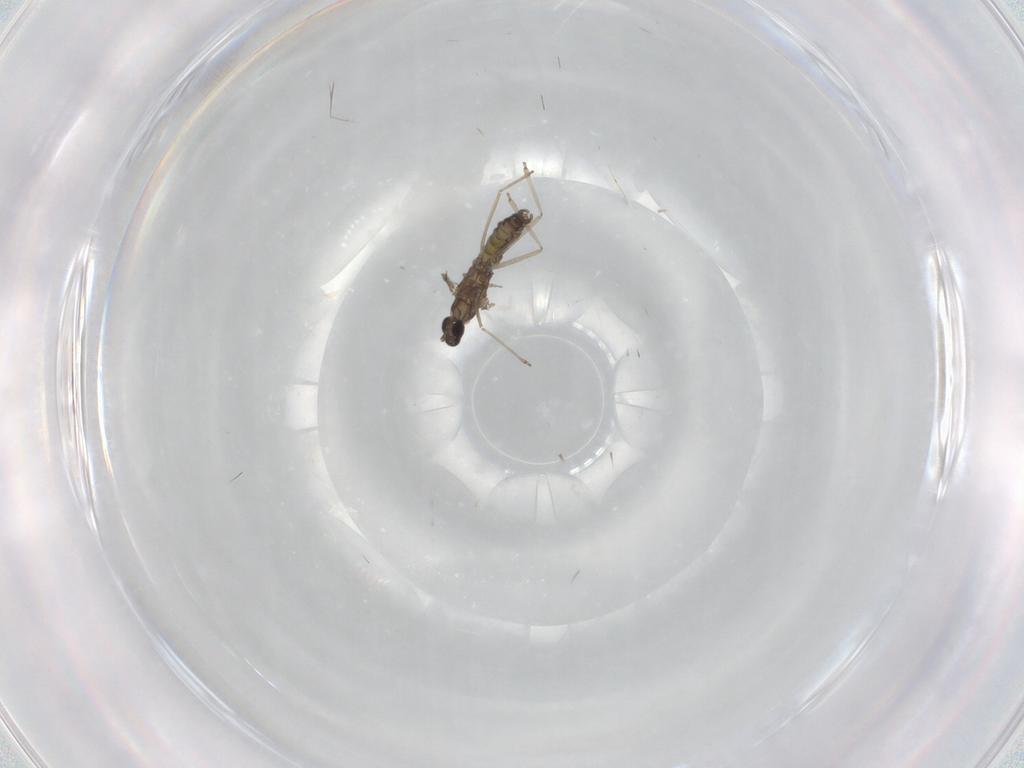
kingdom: Animalia
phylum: Arthropoda
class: Insecta
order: Diptera
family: Cecidomyiidae
